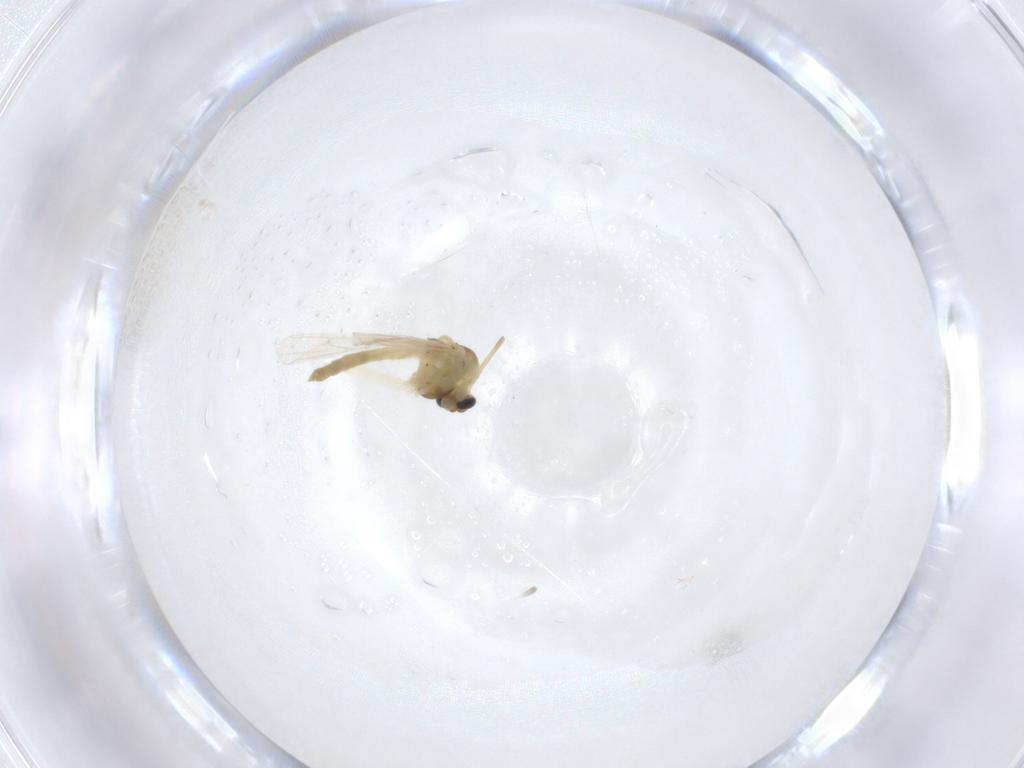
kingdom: Animalia
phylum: Arthropoda
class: Insecta
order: Diptera
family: Chironomidae
